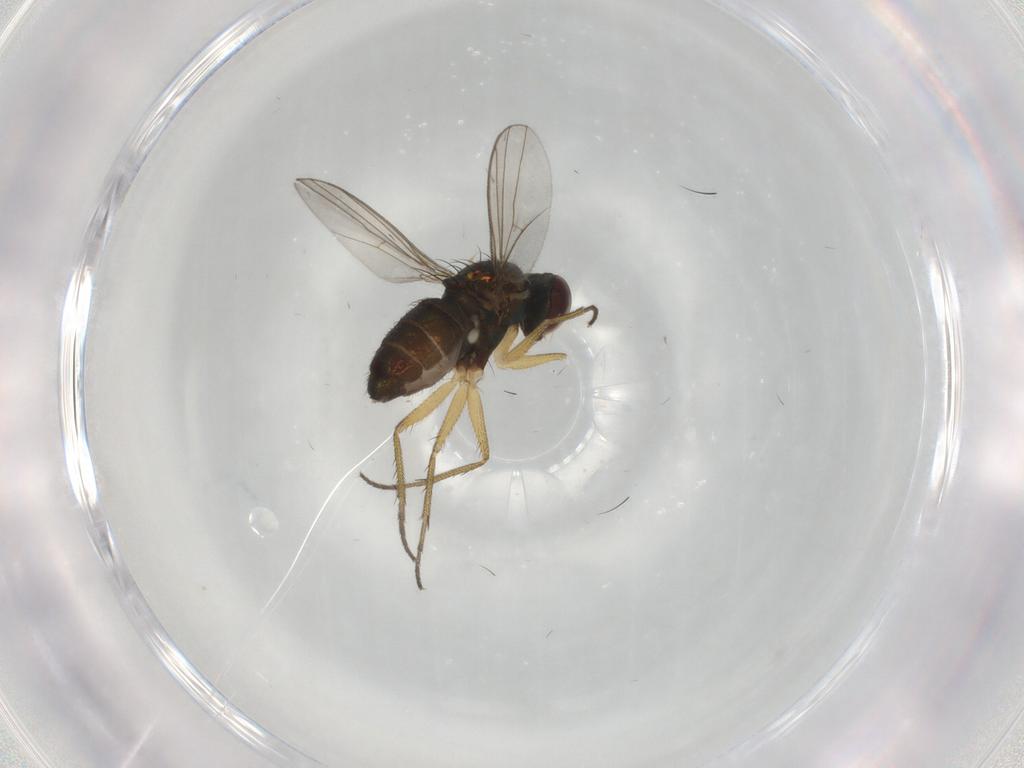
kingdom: Animalia
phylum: Arthropoda
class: Insecta
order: Diptera
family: Dolichopodidae
